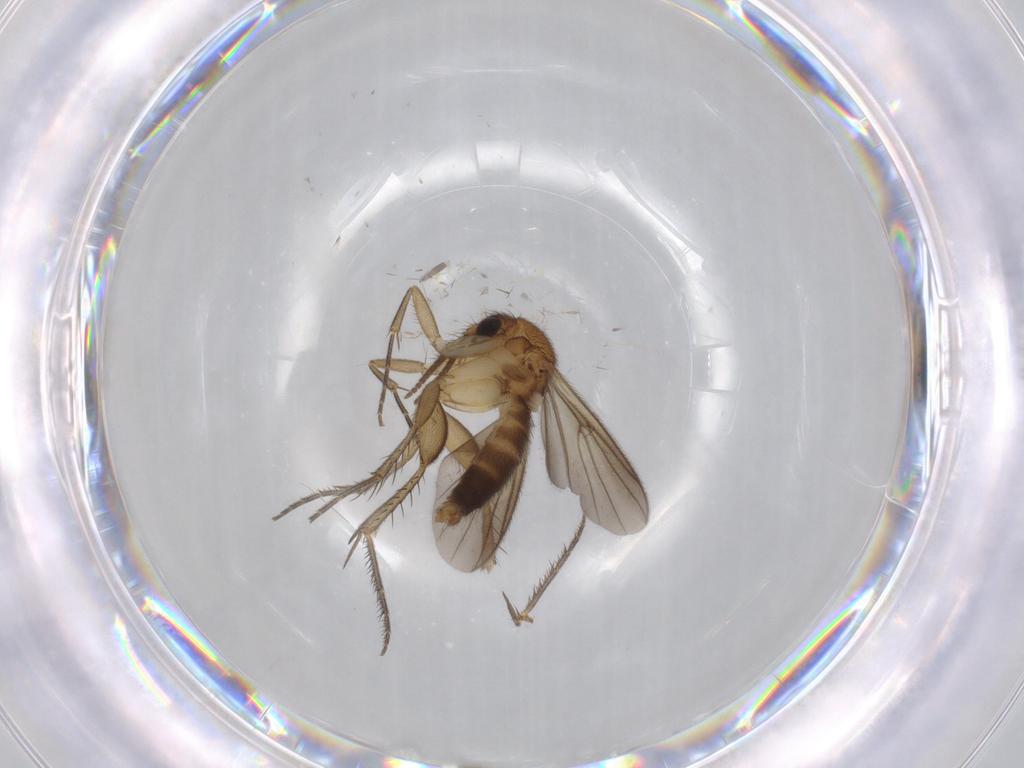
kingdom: Animalia
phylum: Arthropoda
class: Insecta
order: Diptera
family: Mycetophilidae
